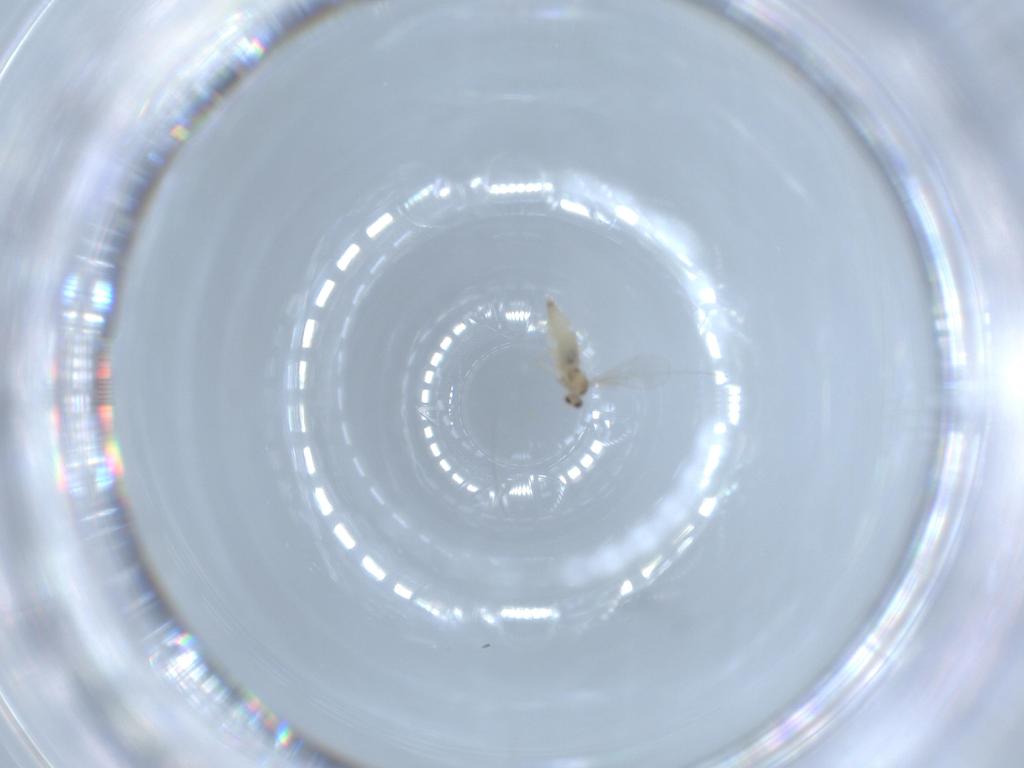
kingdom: Animalia
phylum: Arthropoda
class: Insecta
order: Diptera
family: Cecidomyiidae
